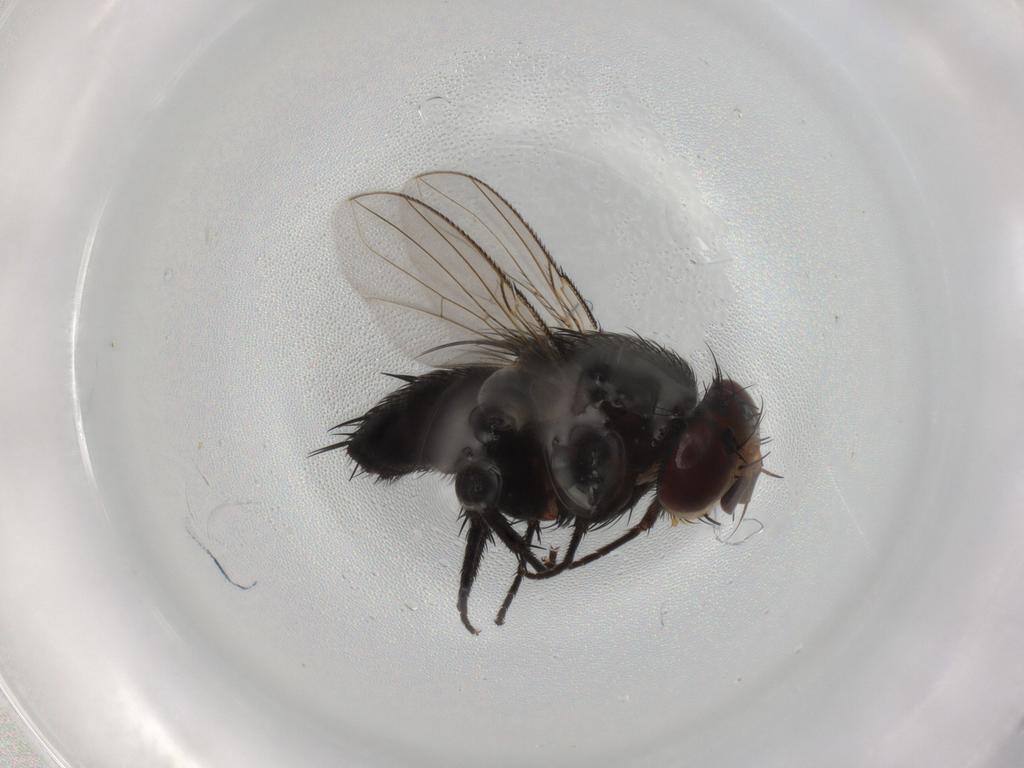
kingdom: Animalia
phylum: Arthropoda
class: Insecta
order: Diptera
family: Tachinidae
